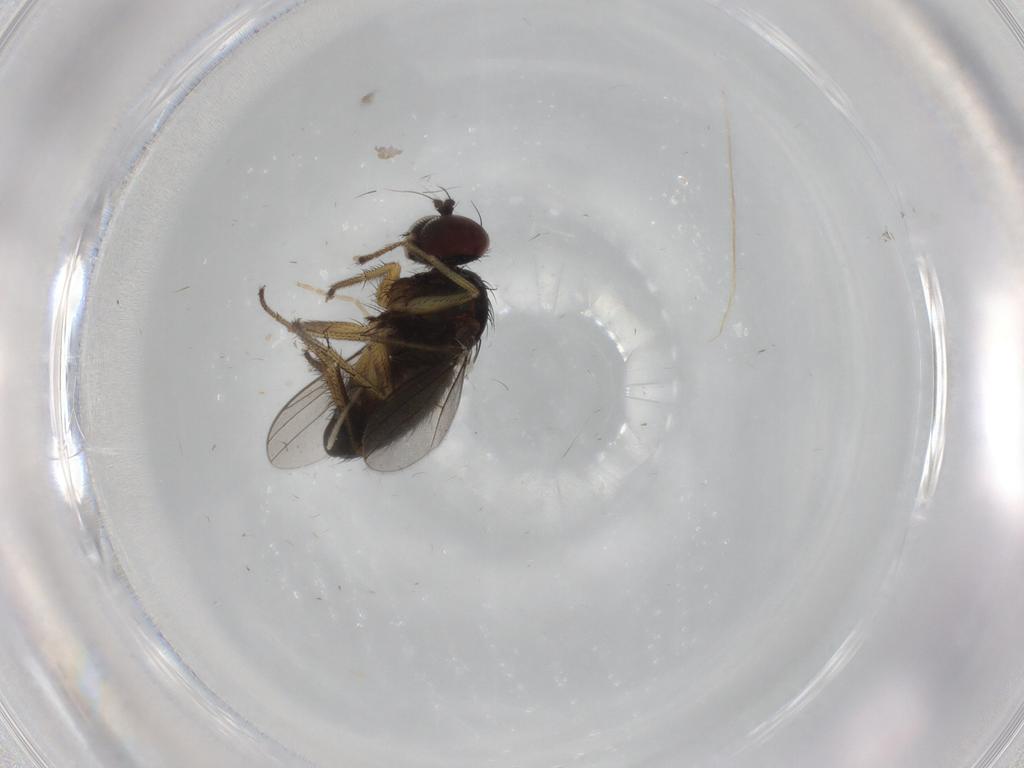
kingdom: Animalia
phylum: Arthropoda
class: Insecta
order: Diptera
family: Dolichopodidae
